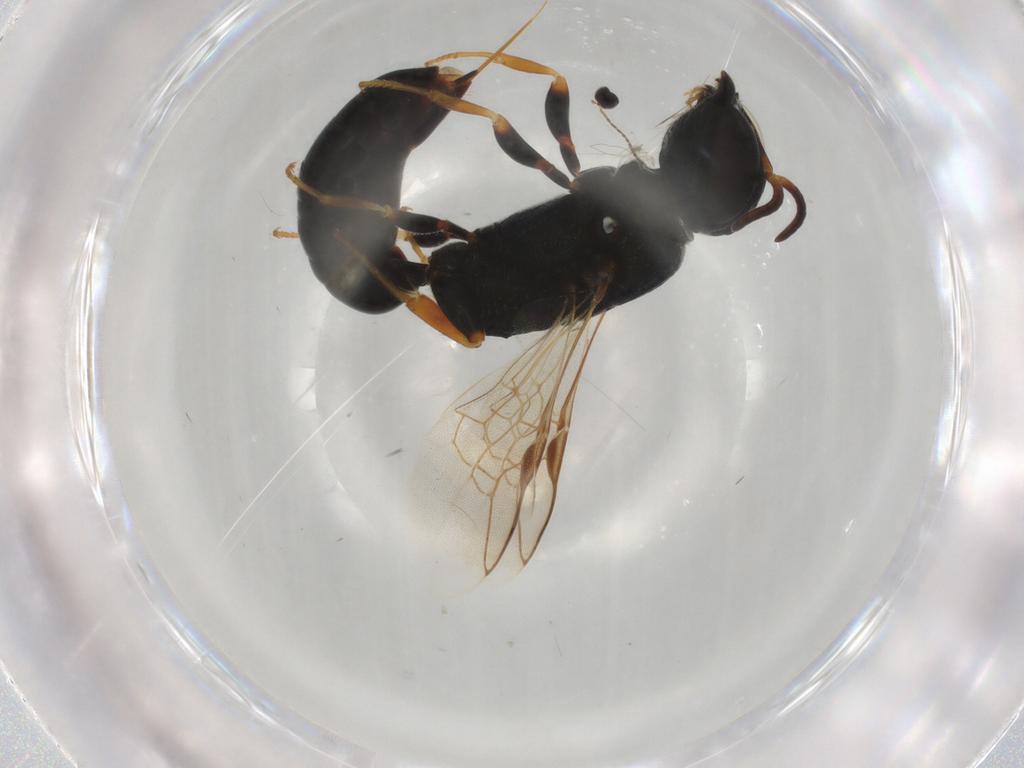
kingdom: Animalia
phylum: Arthropoda
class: Insecta
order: Hymenoptera
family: Crabronidae
